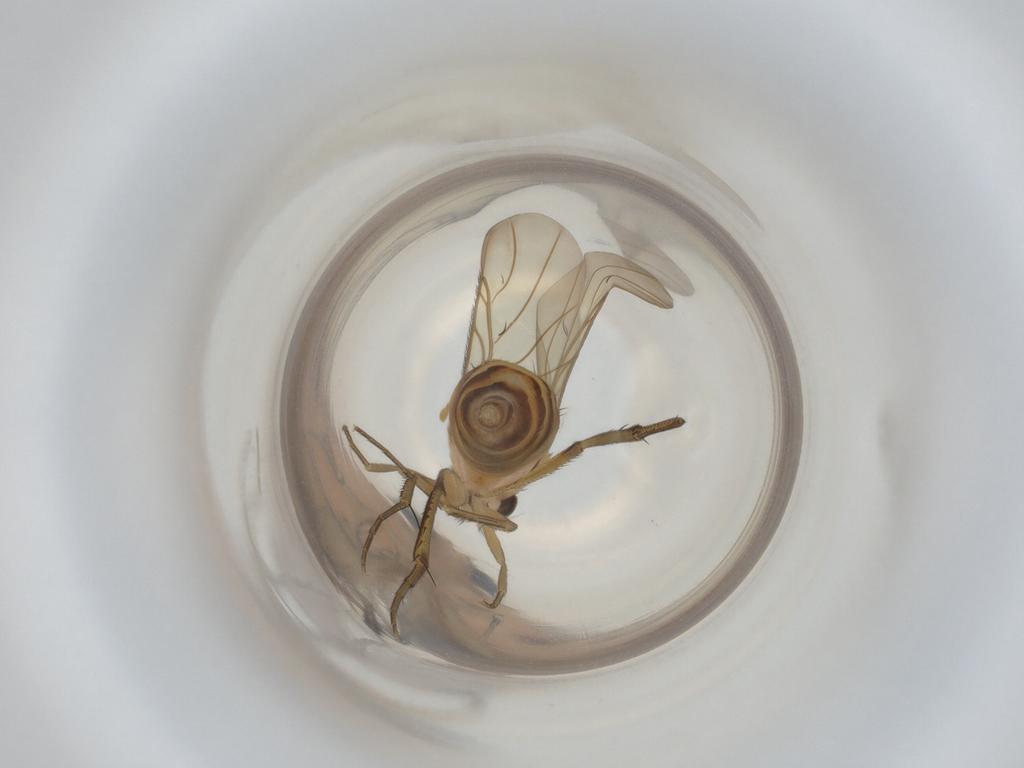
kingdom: Animalia
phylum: Arthropoda
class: Insecta
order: Diptera
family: Phoridae
